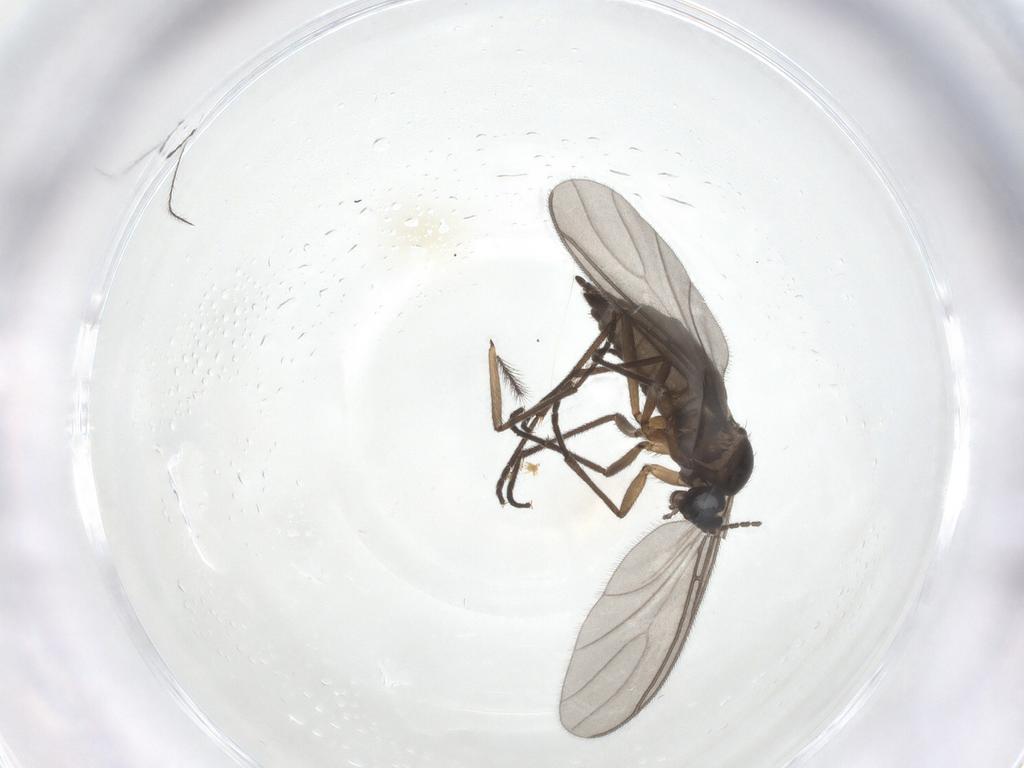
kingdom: Animalia
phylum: Arthropoda
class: Insecta
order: Diptera
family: Sciaridae
